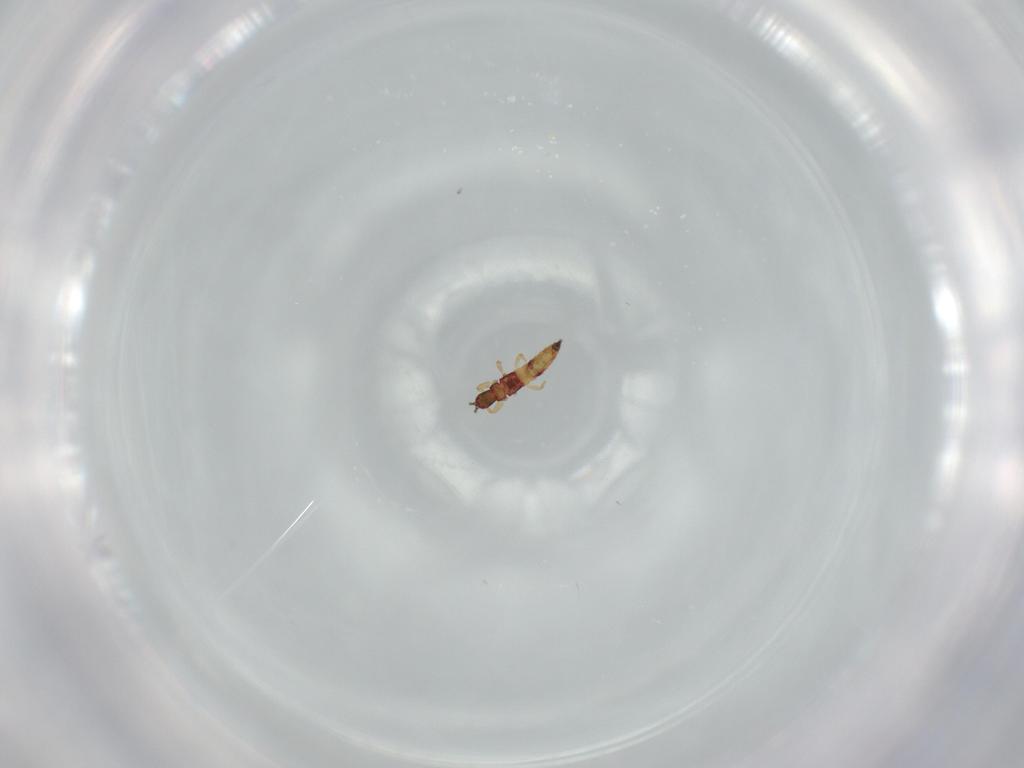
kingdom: Animalia
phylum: Arthropoda
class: Insecta
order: Thysanoptera
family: Phlaeothripidae
